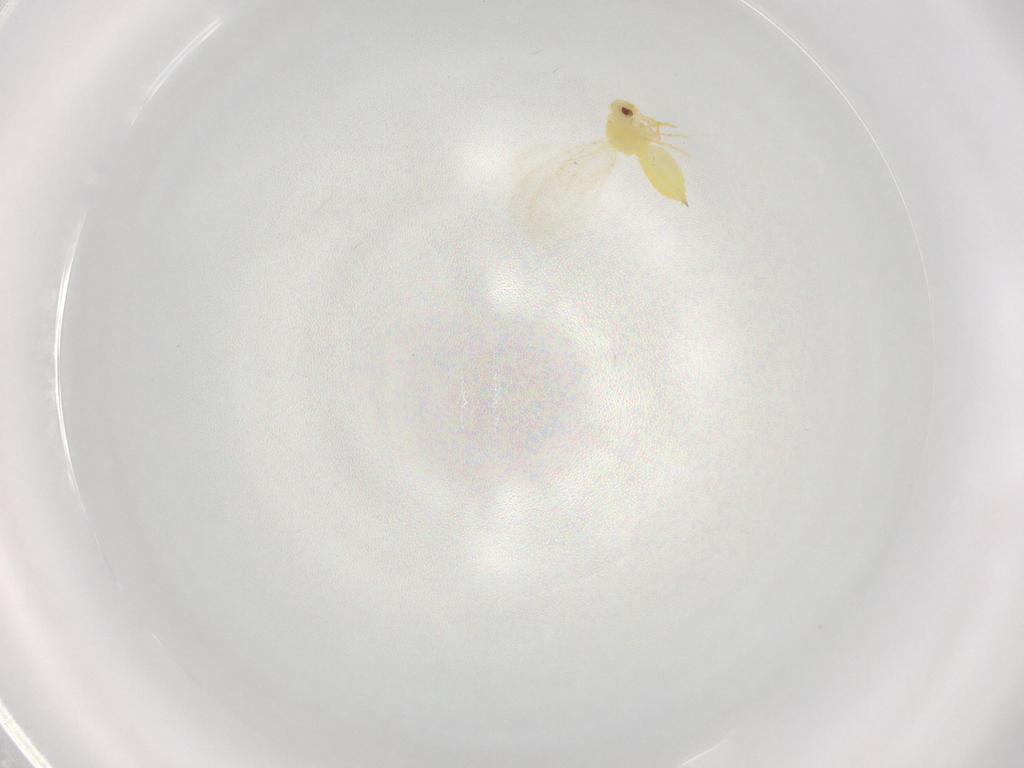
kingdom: Animalia
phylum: Arthropoda
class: Insecta
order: Hemiptera
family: Aleyrodidae
